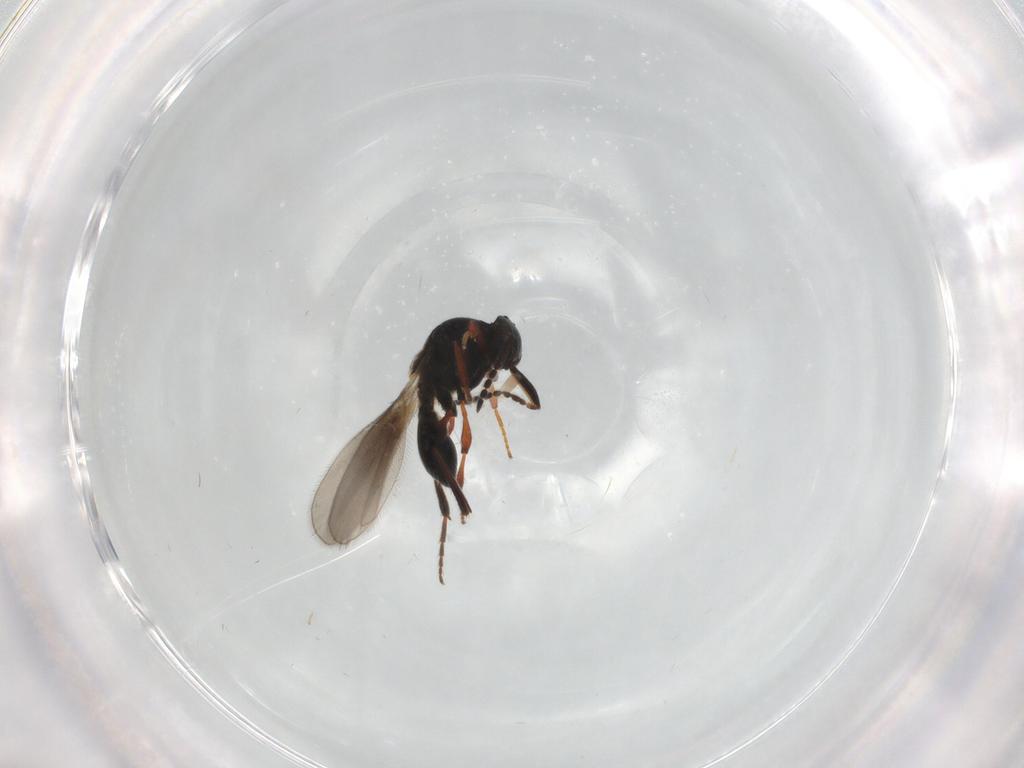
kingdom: Animalia
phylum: Arthropoda
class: Insecta
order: Hymenoptera
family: Platygastridae
